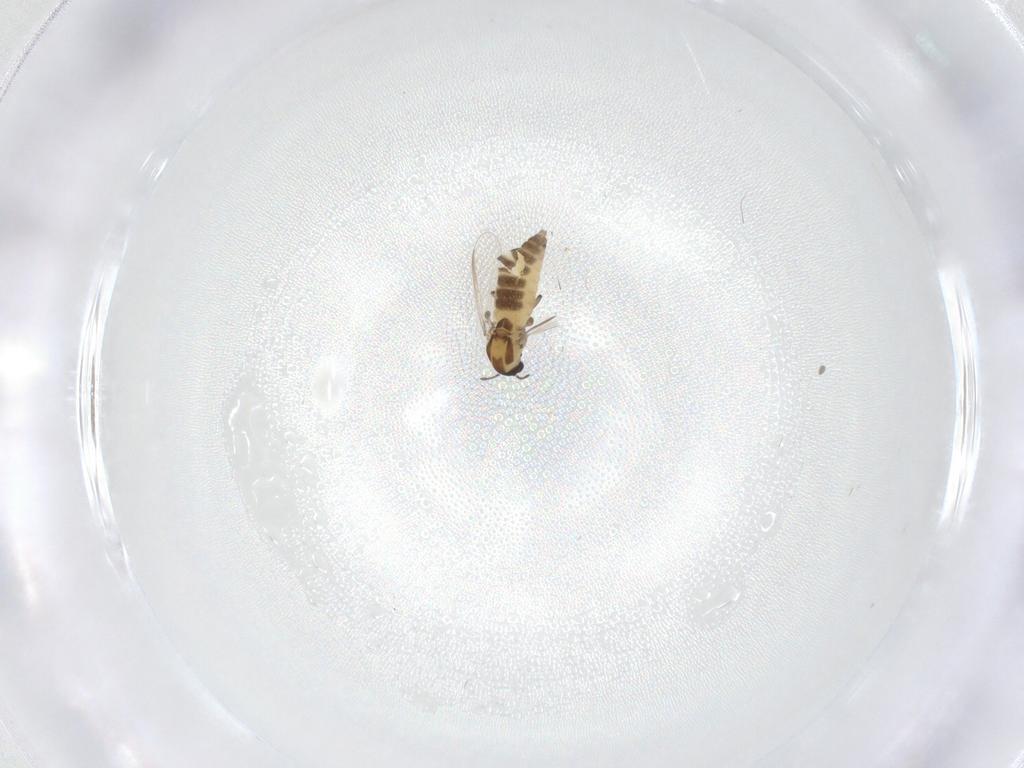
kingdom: Animalia
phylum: Arthropoda
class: Insecta
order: Diptera
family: Chironomidae
